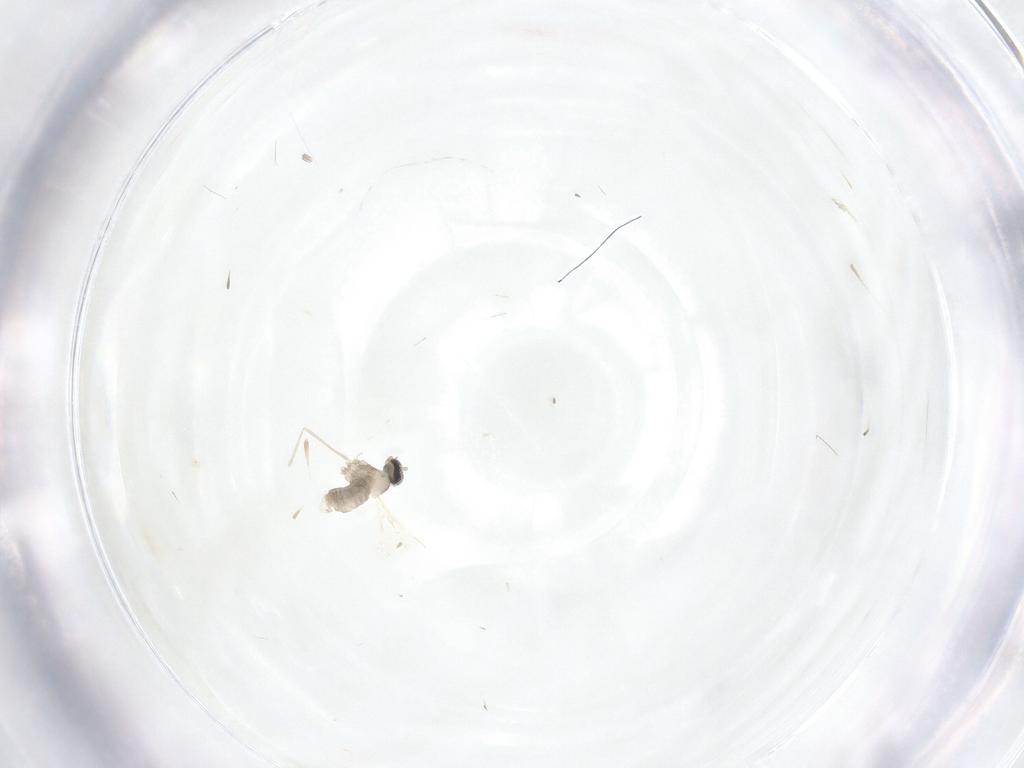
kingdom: Animalia
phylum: Arthropoda
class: Insecta
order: Diptera
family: Cecidomyiidae
